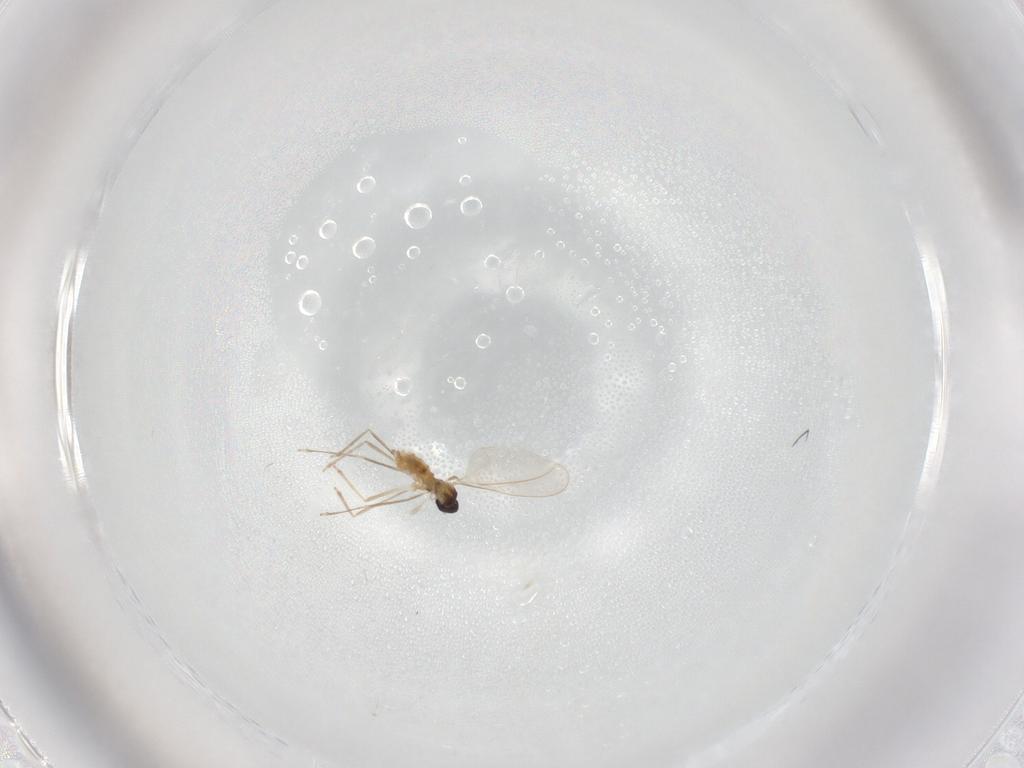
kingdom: Animalia
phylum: Arthropoda
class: Insecta
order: Diptera
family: Cecidomyiidae
